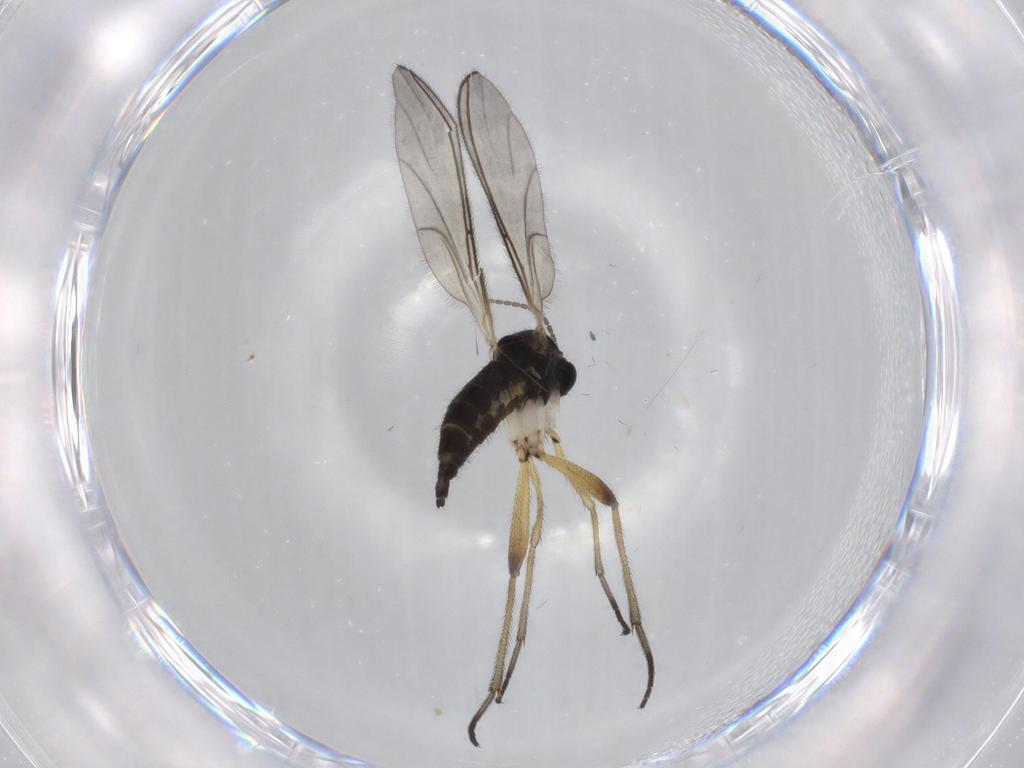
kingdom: Animalia
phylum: Arthropoda
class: Insecta
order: Diptera
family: Sciaridae
